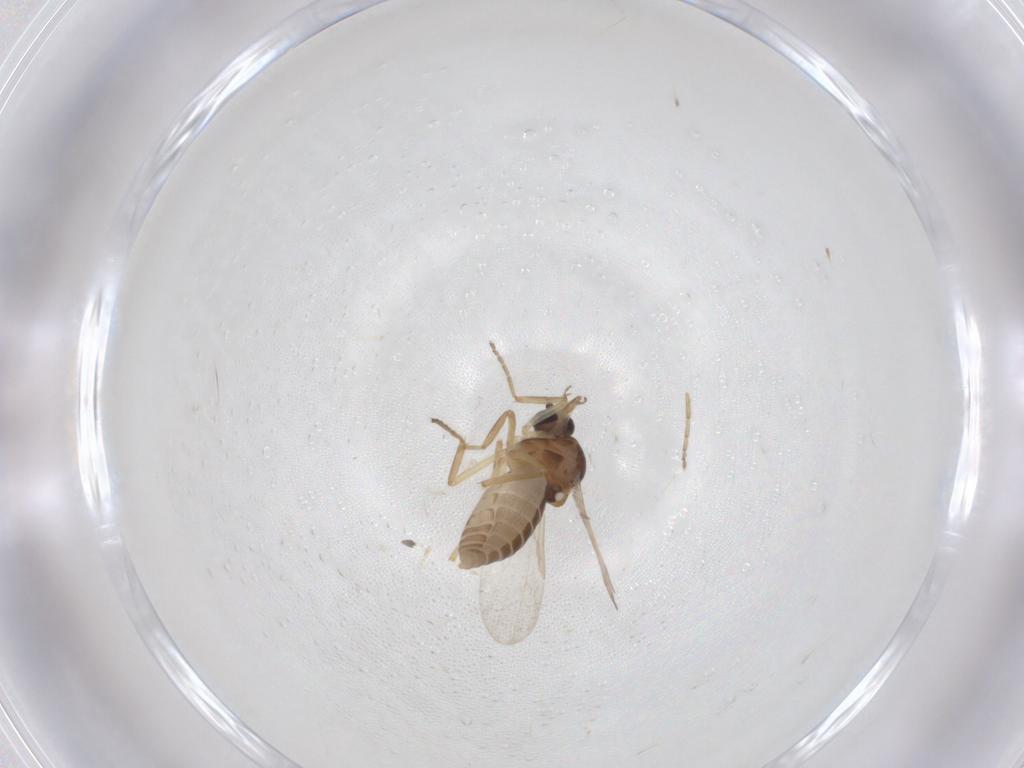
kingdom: Animalia
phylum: Arthropoda
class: Insecta
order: Diptera
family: Ceratopogonidae
